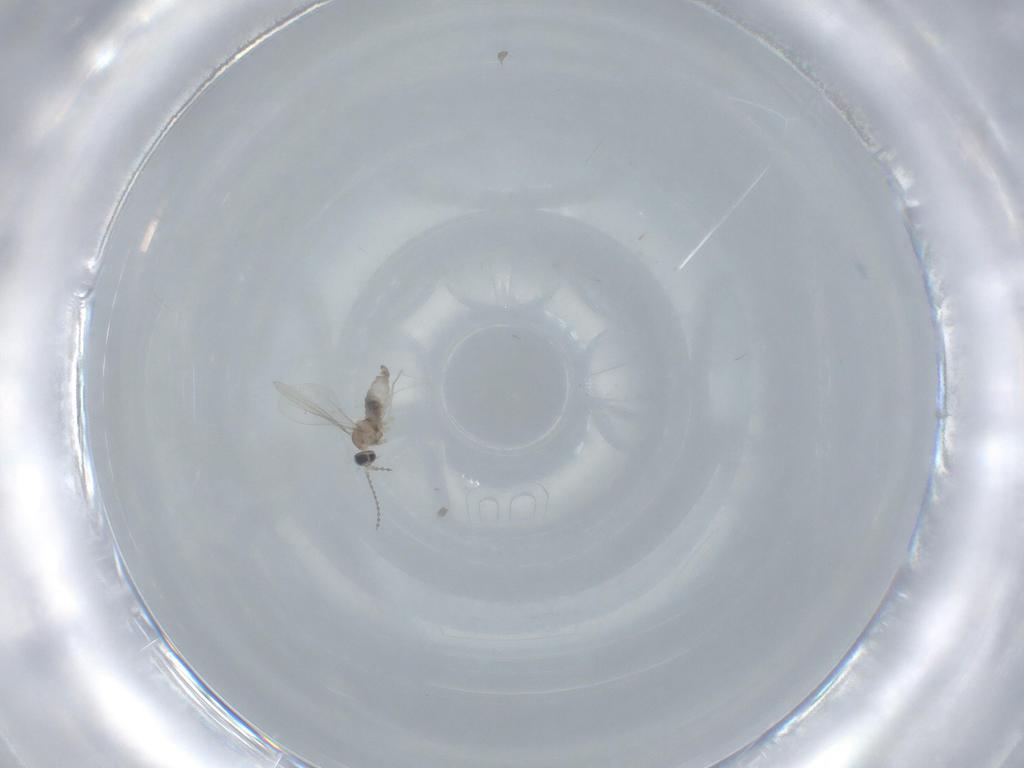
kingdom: Animalia
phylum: Arthropoda
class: Insecta
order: Diptera
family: Cecidomyiidae
